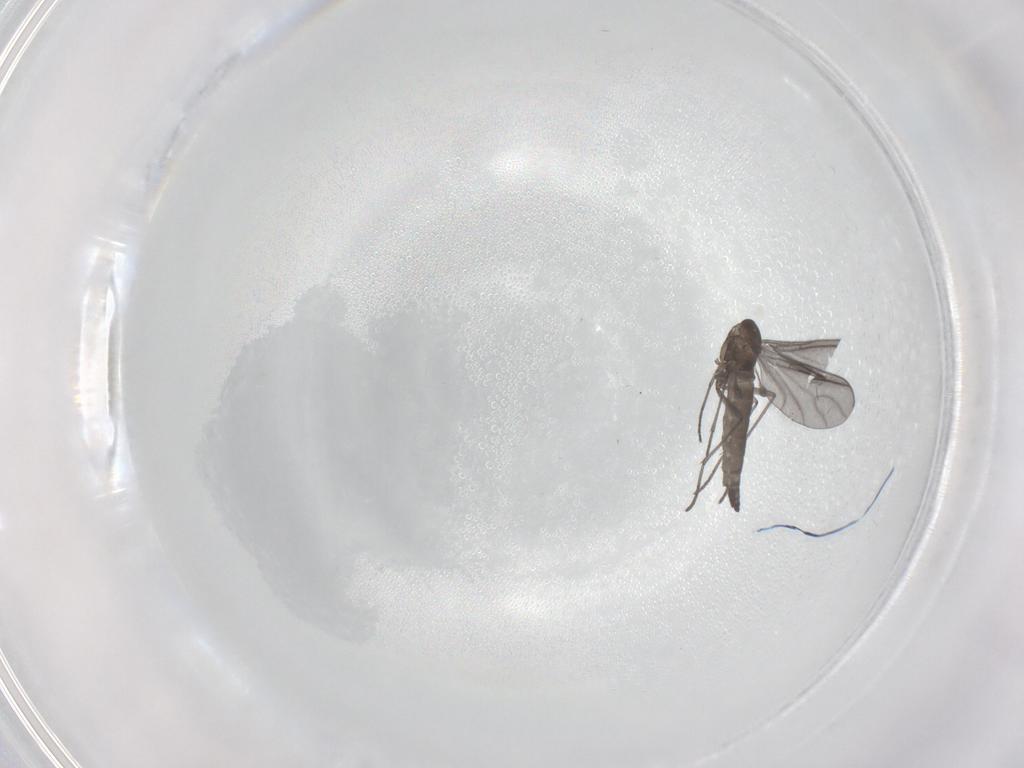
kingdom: Animalia
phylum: Arthropoda
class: Insecta
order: Diptera
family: Sciaridae
